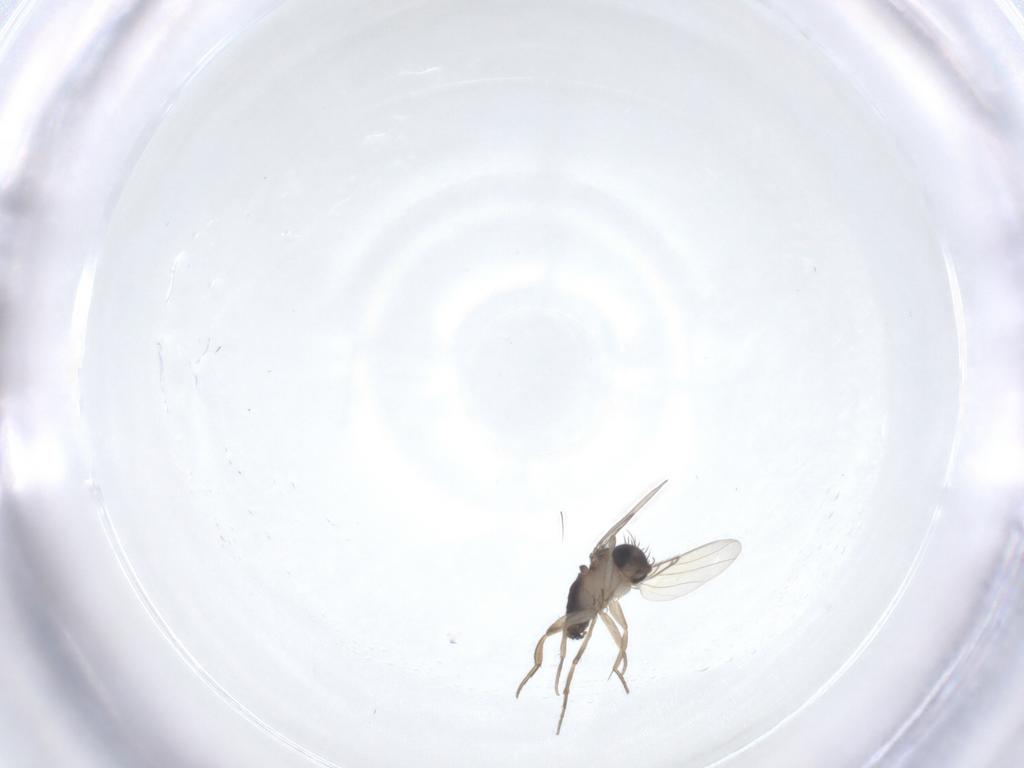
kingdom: Animalia
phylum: Arthropoda
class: Insecta
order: Diptera
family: Phoridae
